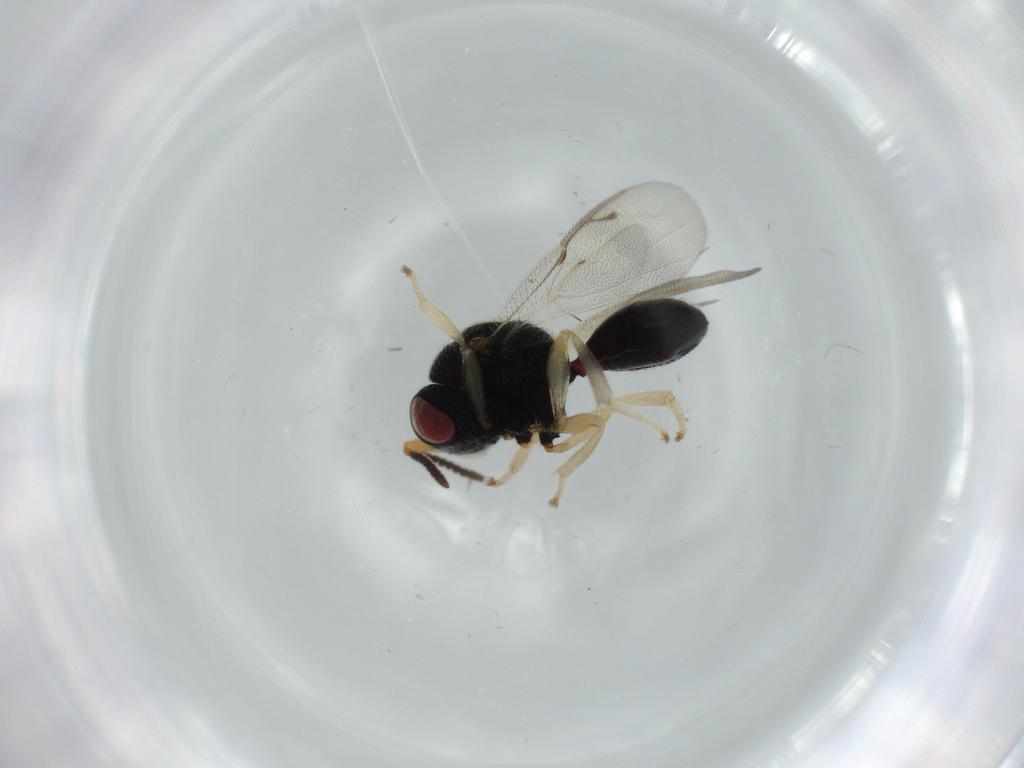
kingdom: Animalia
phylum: Arthropoda
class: Insecta
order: Hymenoptera
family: Eurytomidae
